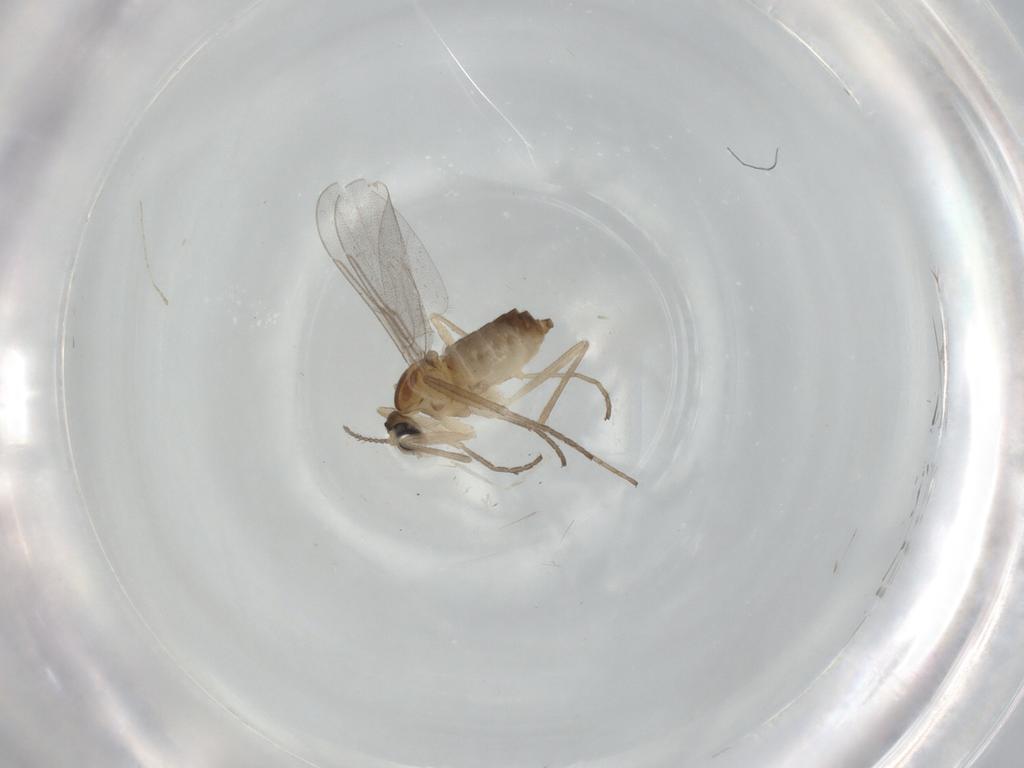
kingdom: Animalia
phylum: Arthropoda
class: Insecta
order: Diptera
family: Cecidomyiidae
